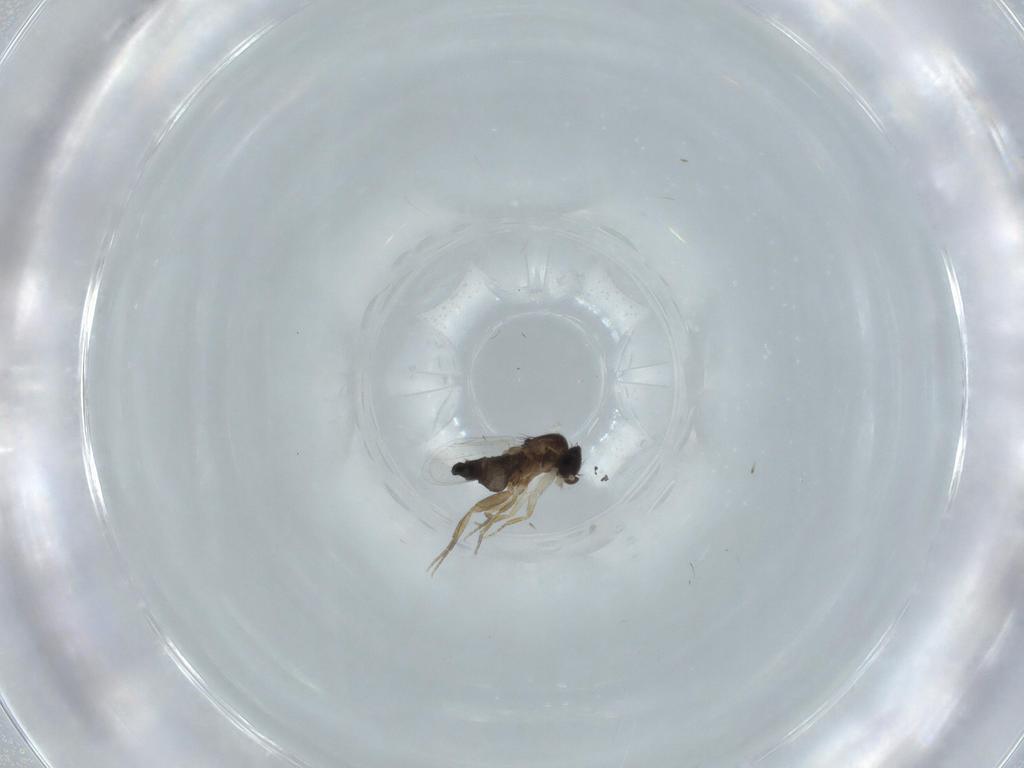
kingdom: Animalia
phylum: Arthropoda
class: Insecta
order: Diptera
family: Phoridae
